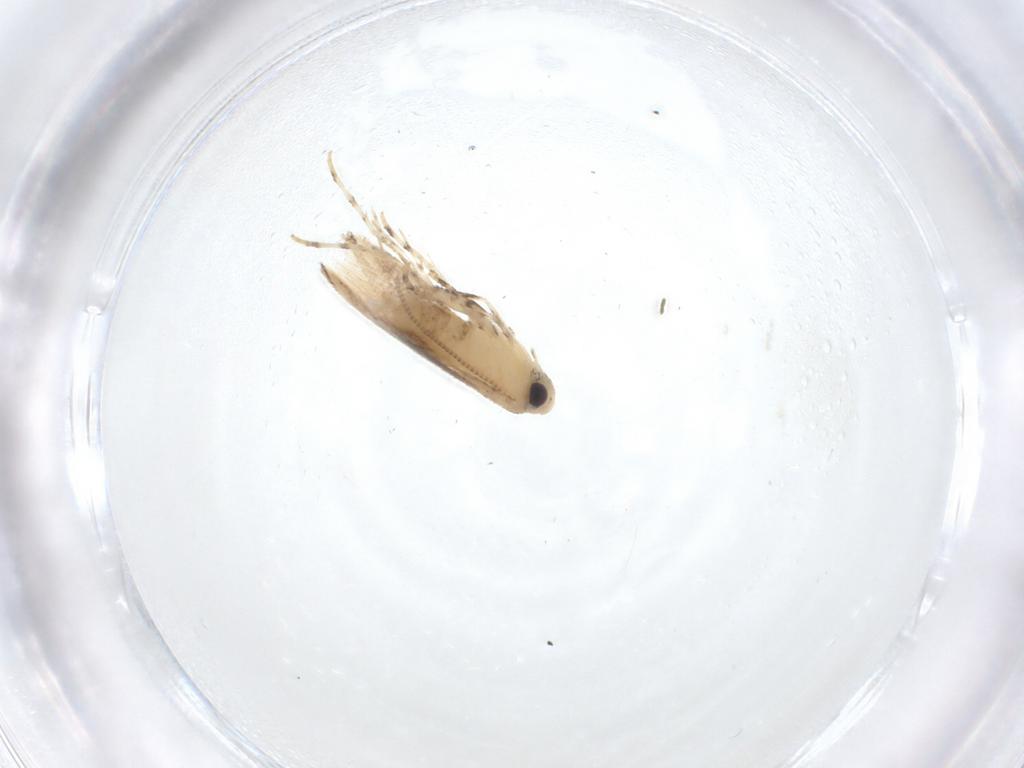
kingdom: Animalia
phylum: Arthropoda
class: Insecta
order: Lepidoptera
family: Gracillariidae
